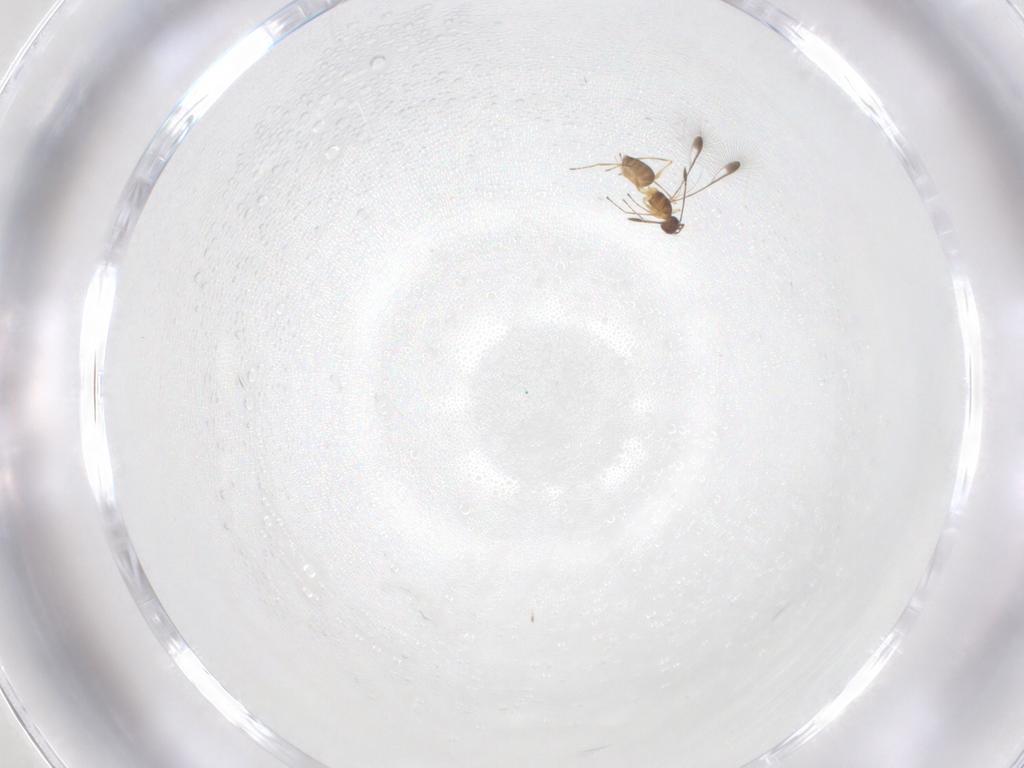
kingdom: Animalia
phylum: Arthropoda
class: Insecta
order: Hymenoptera
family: Mymaridae
